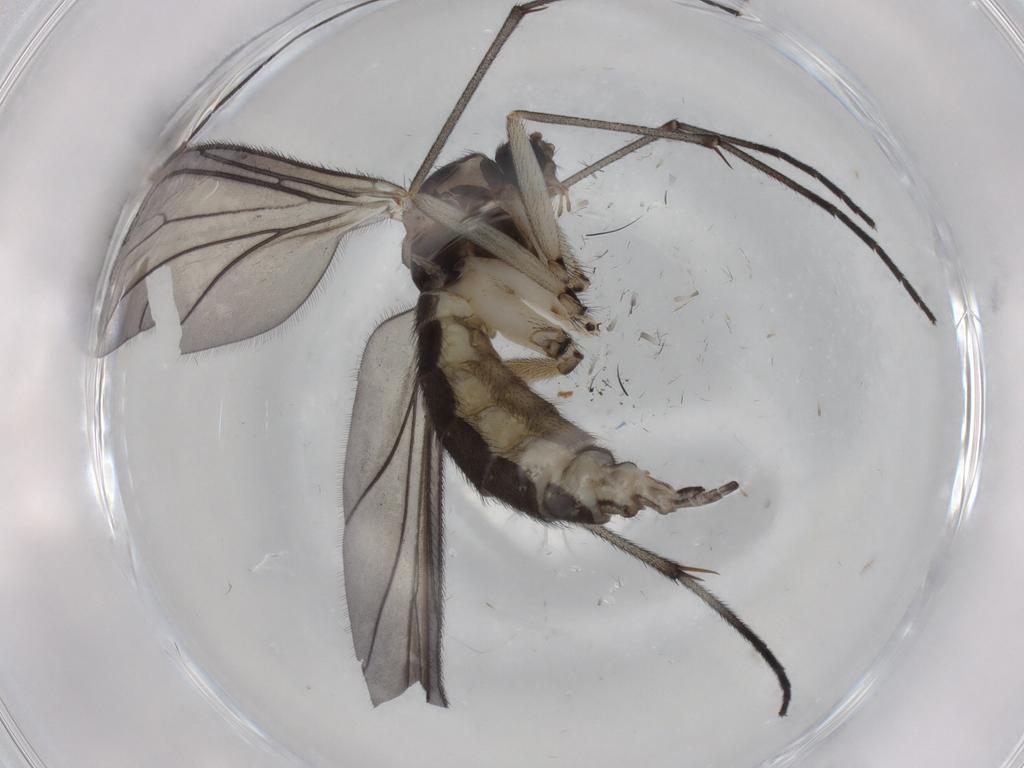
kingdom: Animalia
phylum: Arthropoda
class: Insecta
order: Diptera
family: Sciaridae
